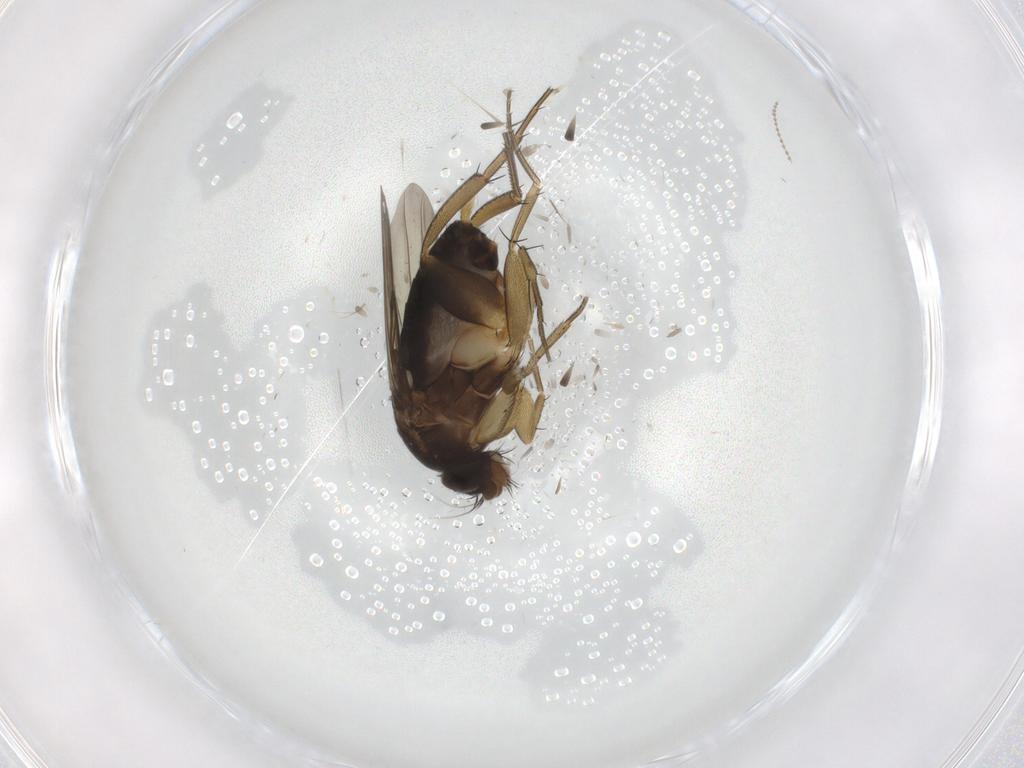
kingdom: Animalia
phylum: Arthropoda
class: Insecta
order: Diptera
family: Phoridae
